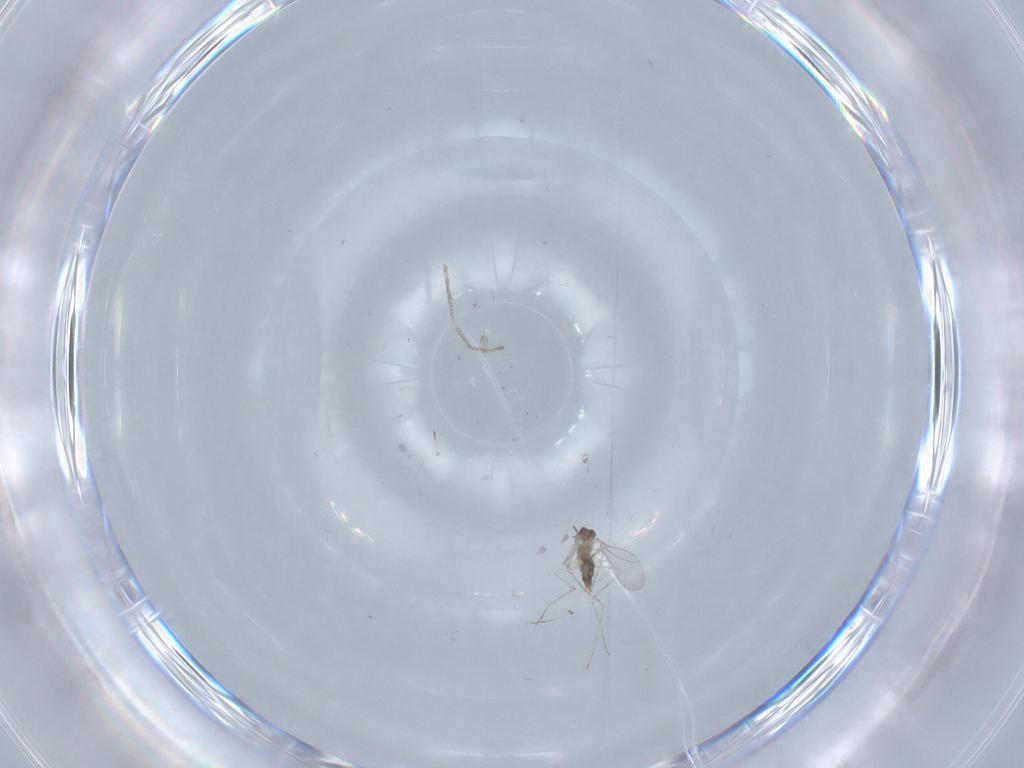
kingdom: Animalia
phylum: Arthropoda
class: Insecta
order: Diptera
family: Cecidomyiidae
